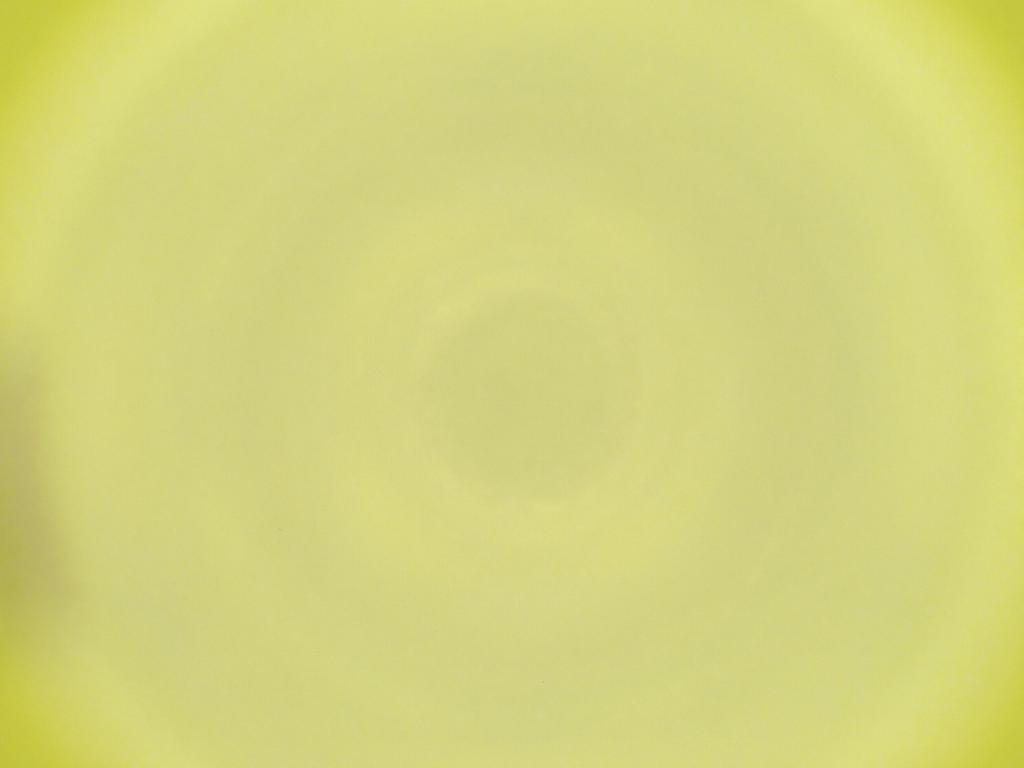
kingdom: Animalia
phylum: Arthropoda
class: Insecta
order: Diptera
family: Cecidomyiidae
